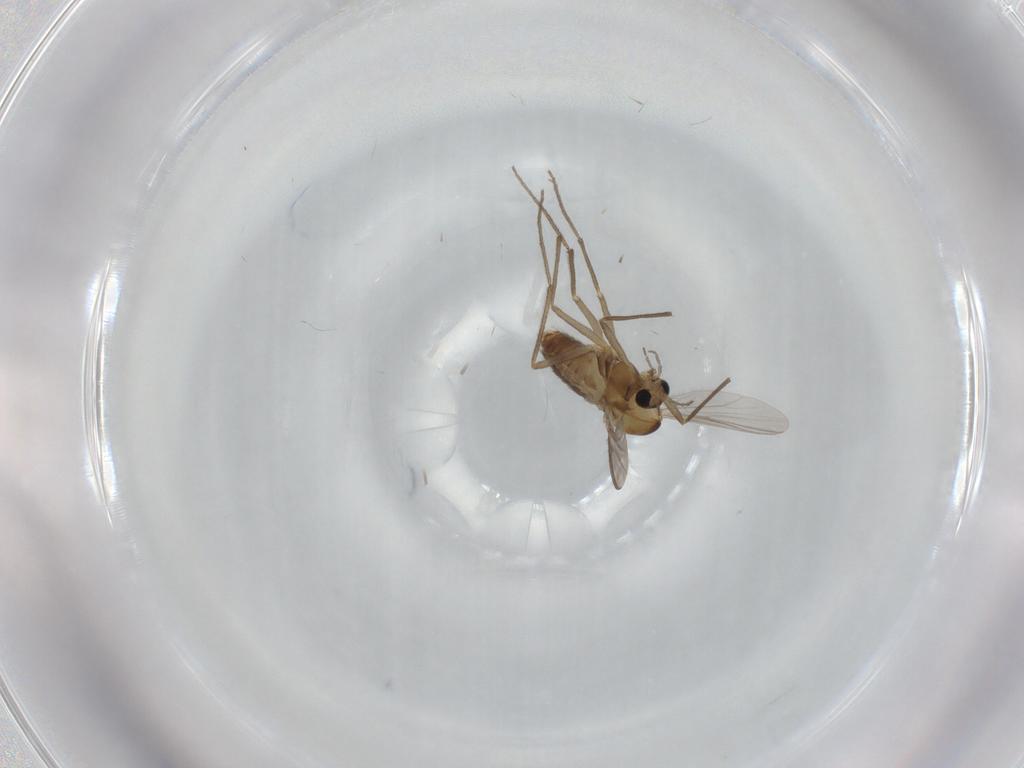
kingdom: Animalia
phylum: Arthropoda
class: Insecta
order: Diptera
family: Chironomidae
